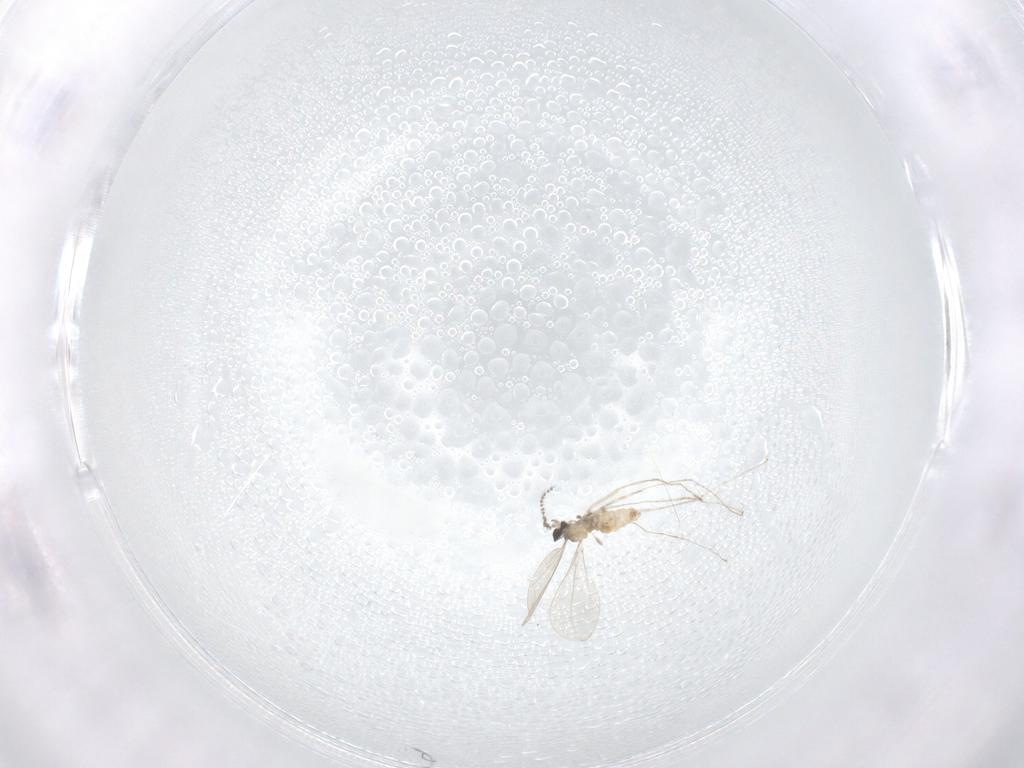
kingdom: Animalia
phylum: Arthropoda
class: Insecta
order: Diptera
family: Cecidomyiidae
